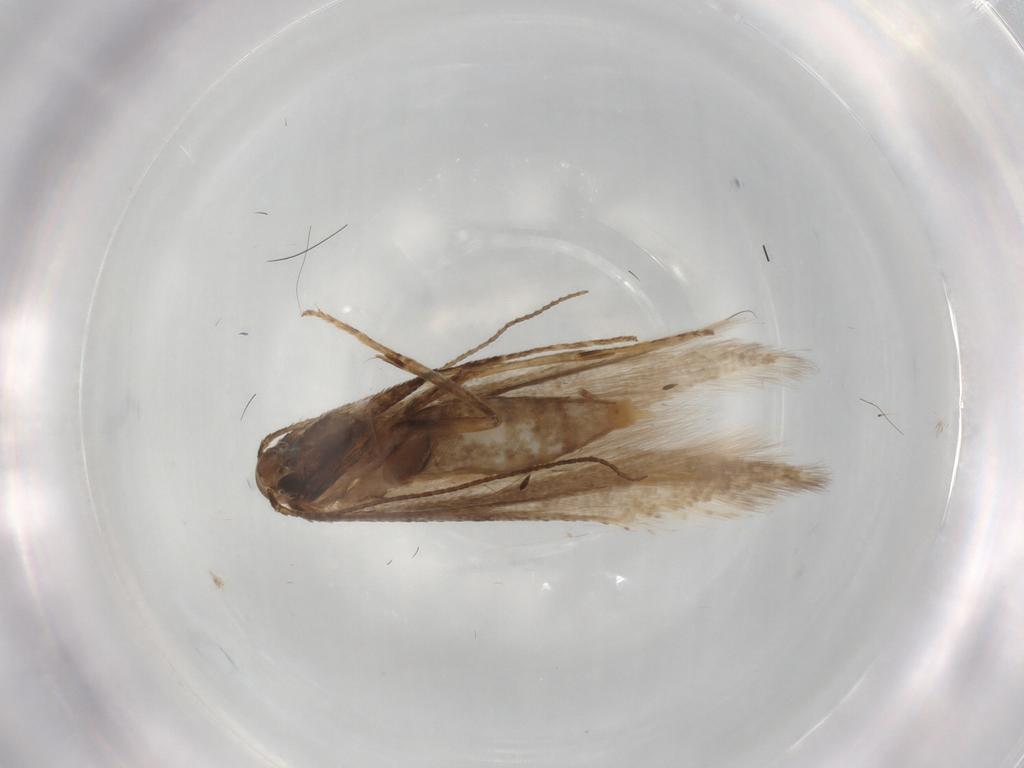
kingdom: Animalia
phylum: Arthropoda
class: Insecta
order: Lepidoptera
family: Gelechiidae
